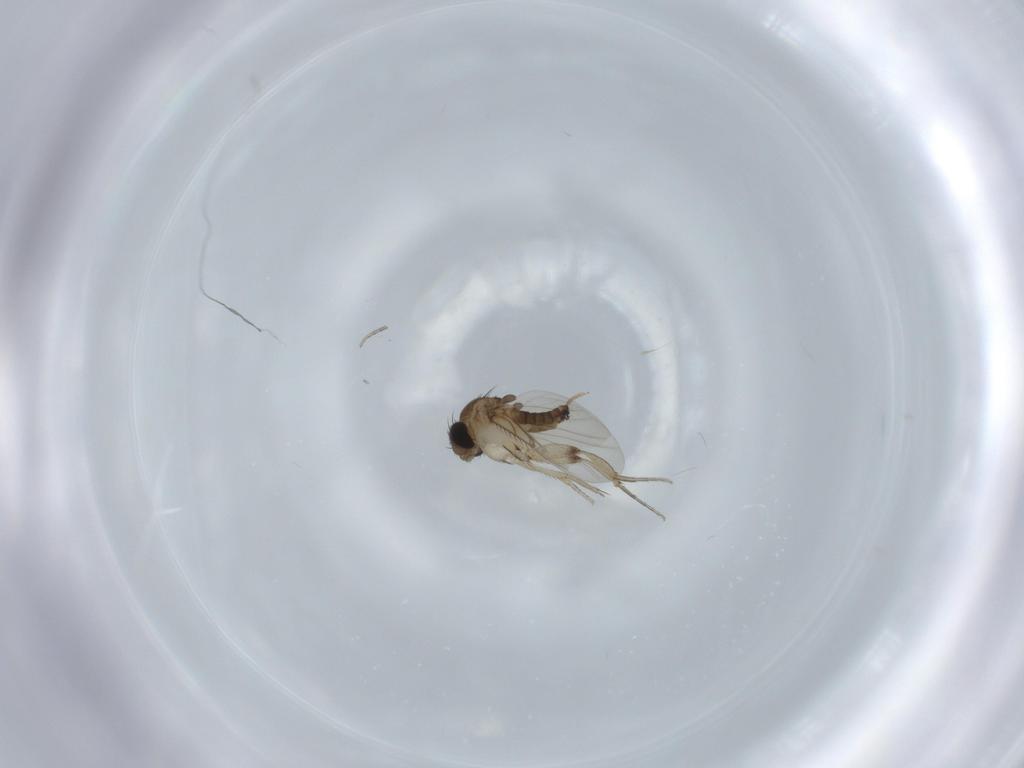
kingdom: Animalia
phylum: Arthropoda
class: Insecta
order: Diptera
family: Phoridae
